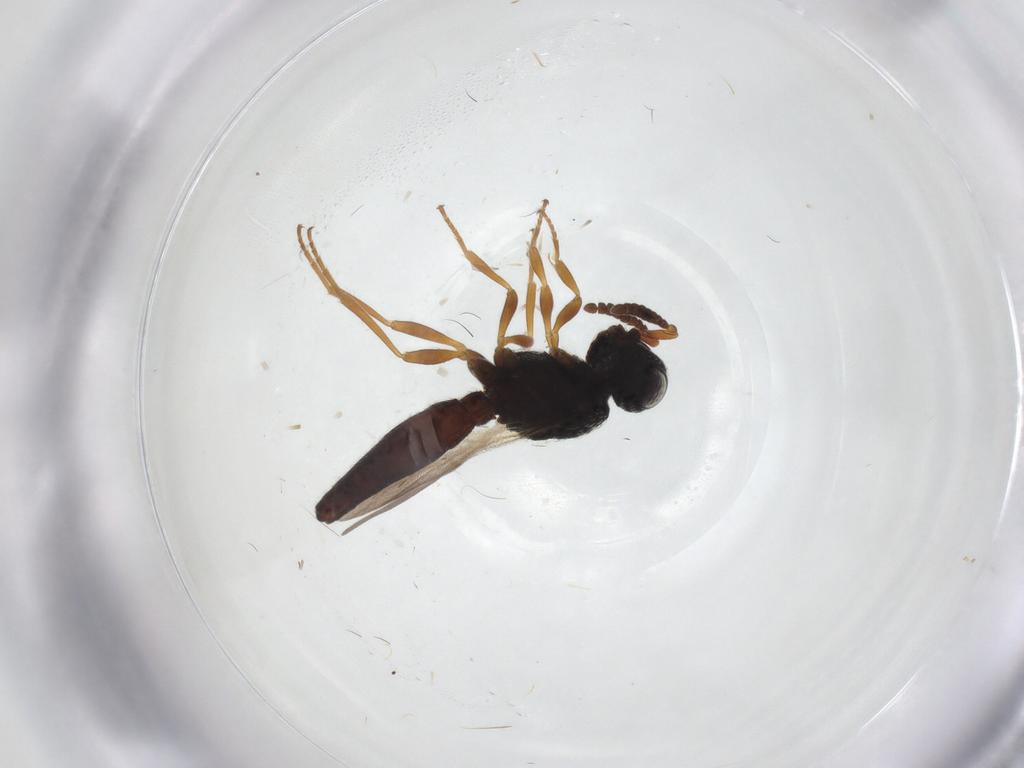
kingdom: Animalia
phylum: Arthropoda
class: Insecta
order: Hymenoptera
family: Scelionidae
